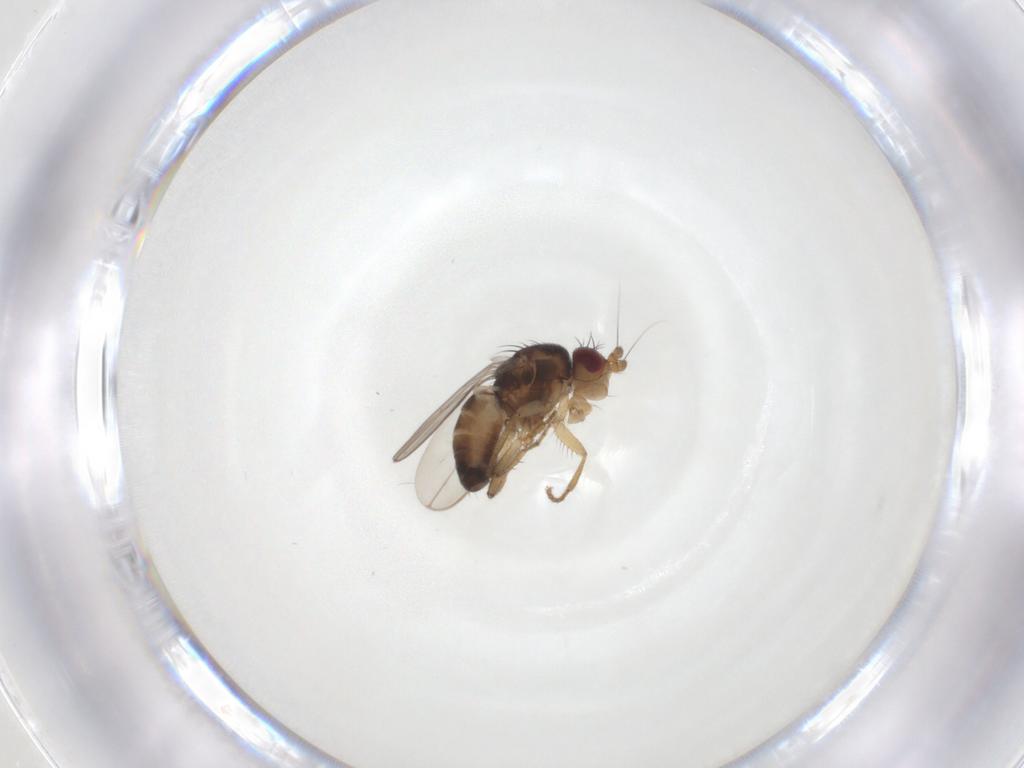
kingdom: Animalia
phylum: Arthropoda
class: Insecta
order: Diptera
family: Sphaeroceridae
